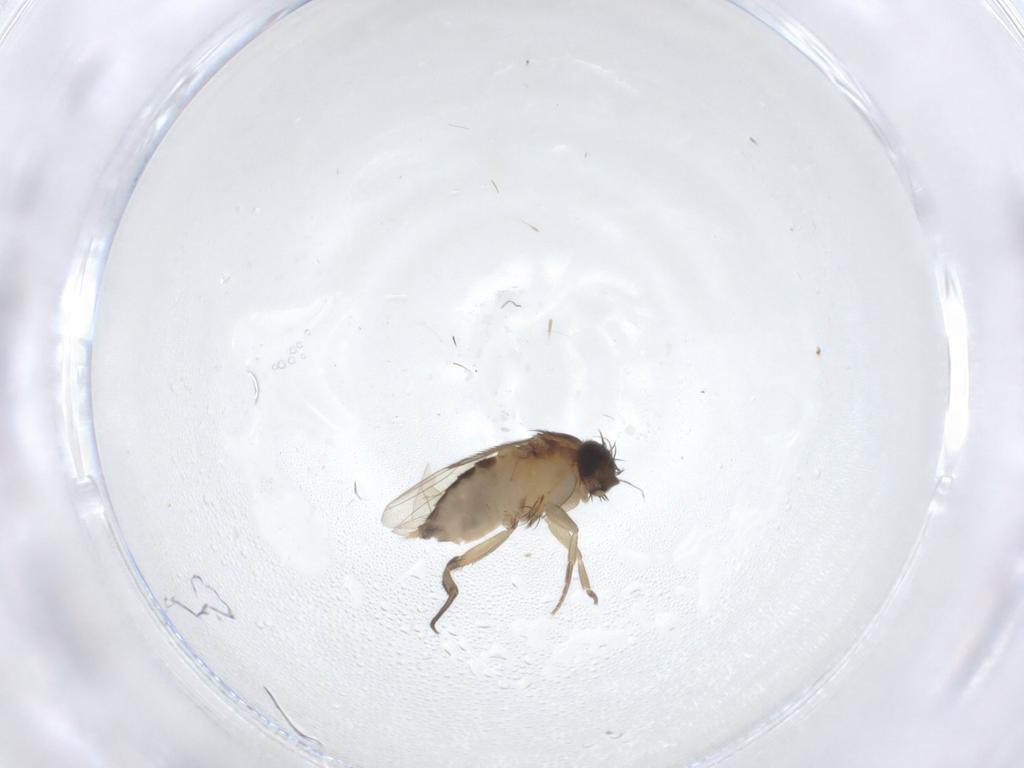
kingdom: Animalia
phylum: Arthropoda
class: Insecta
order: Diptera
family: Phoridae
